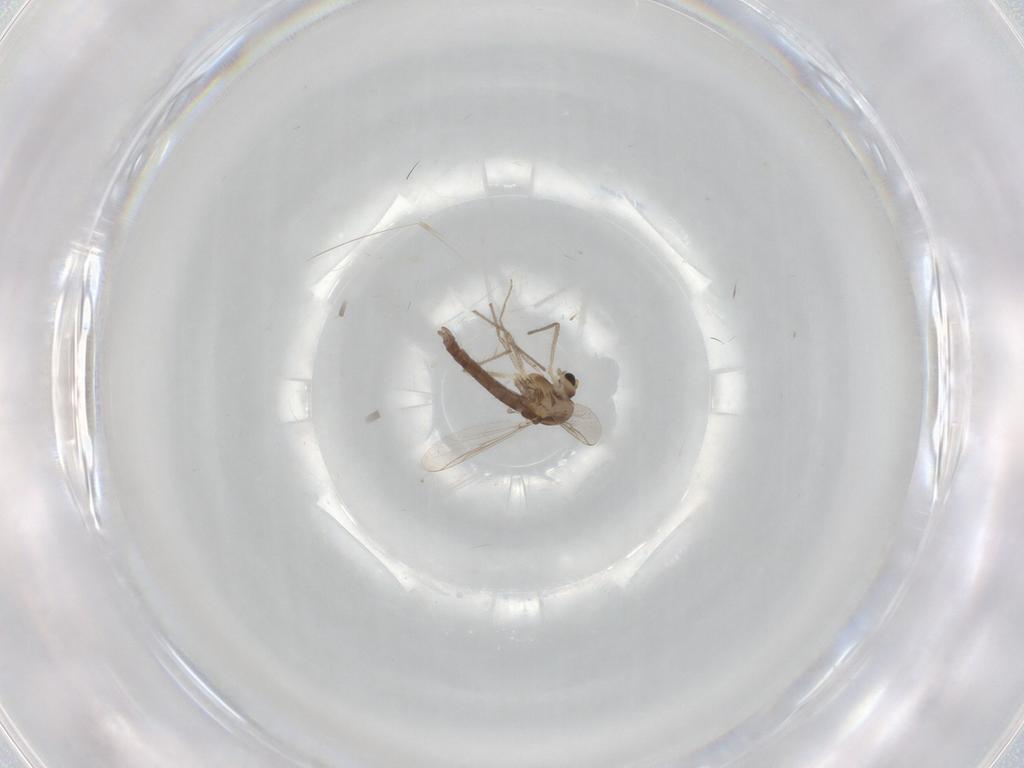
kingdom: Animalia
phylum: Arthropoda
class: Insecta
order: Diptera
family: Chironomidae
